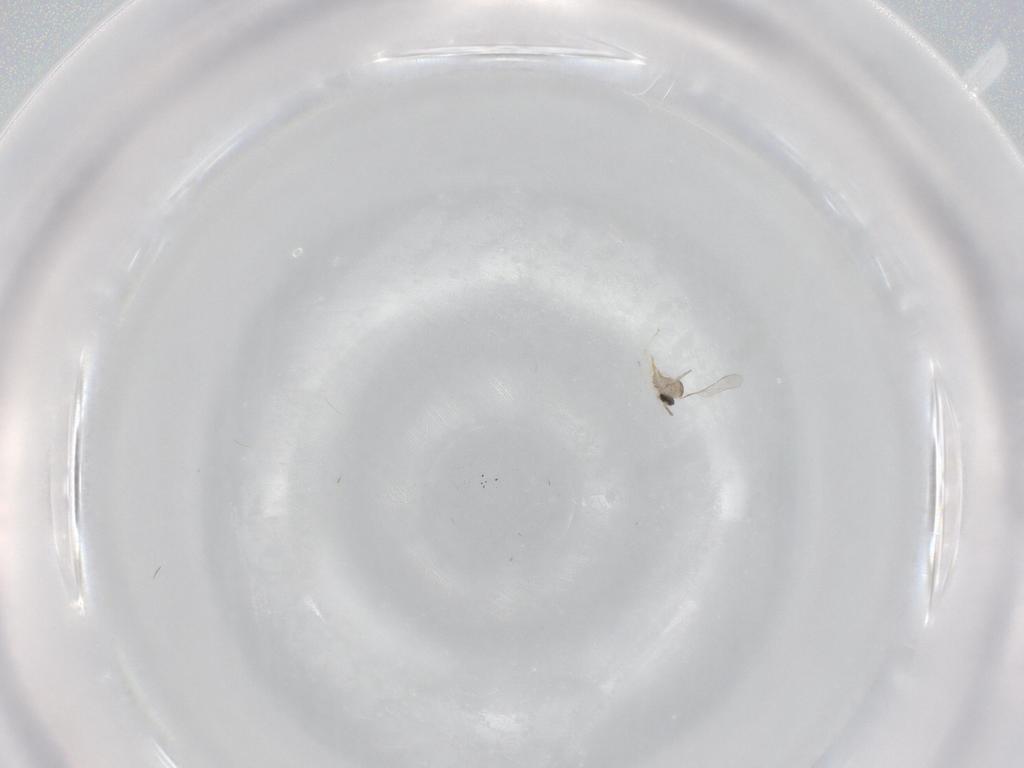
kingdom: Animalia
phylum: Arthropoda
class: Insecta
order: Diptera
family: Cecidomyiidae
